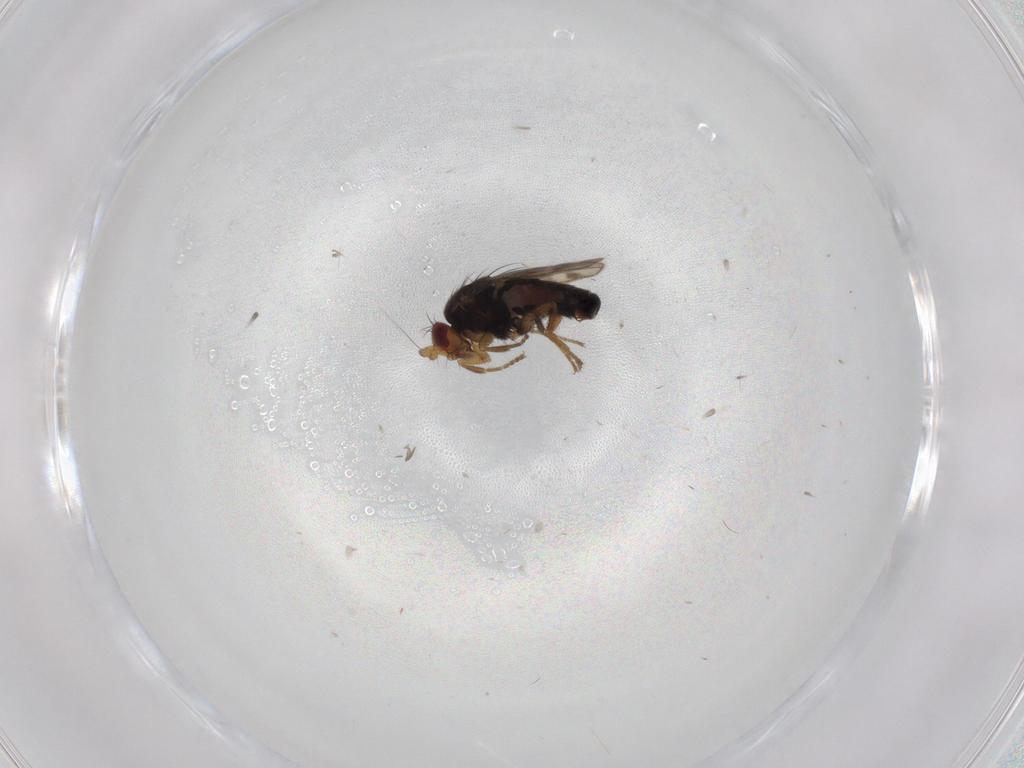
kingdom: Animalia
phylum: Arthropoda
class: Insecta
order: Diptera
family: Sphaeroceridae
